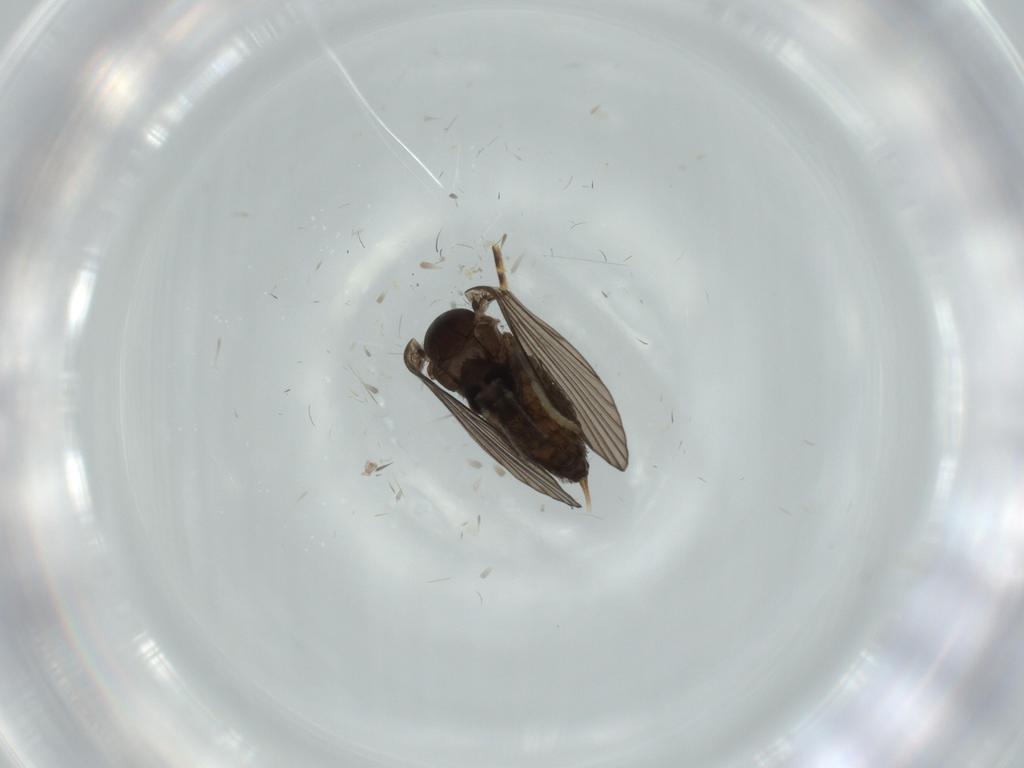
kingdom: Animalia
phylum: Arthropoda
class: Insecta
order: Diptera
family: Psychodidae
